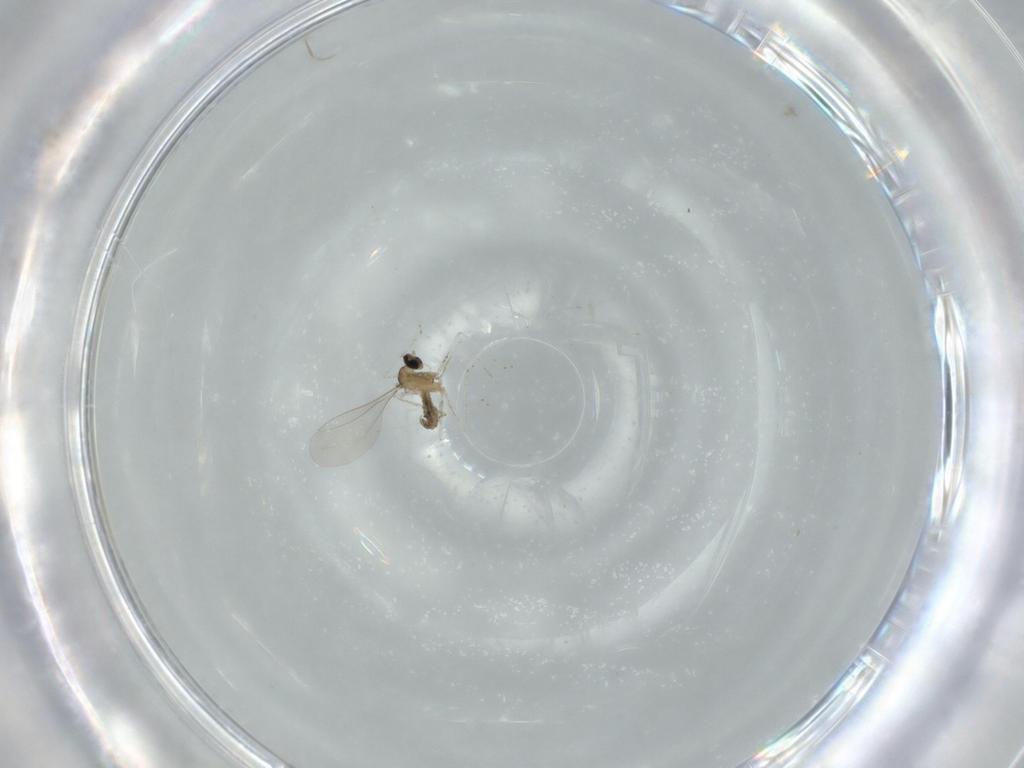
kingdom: Animalia
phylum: Arthropoda
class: Insecta
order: Diptera
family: Cecidomyiidae
